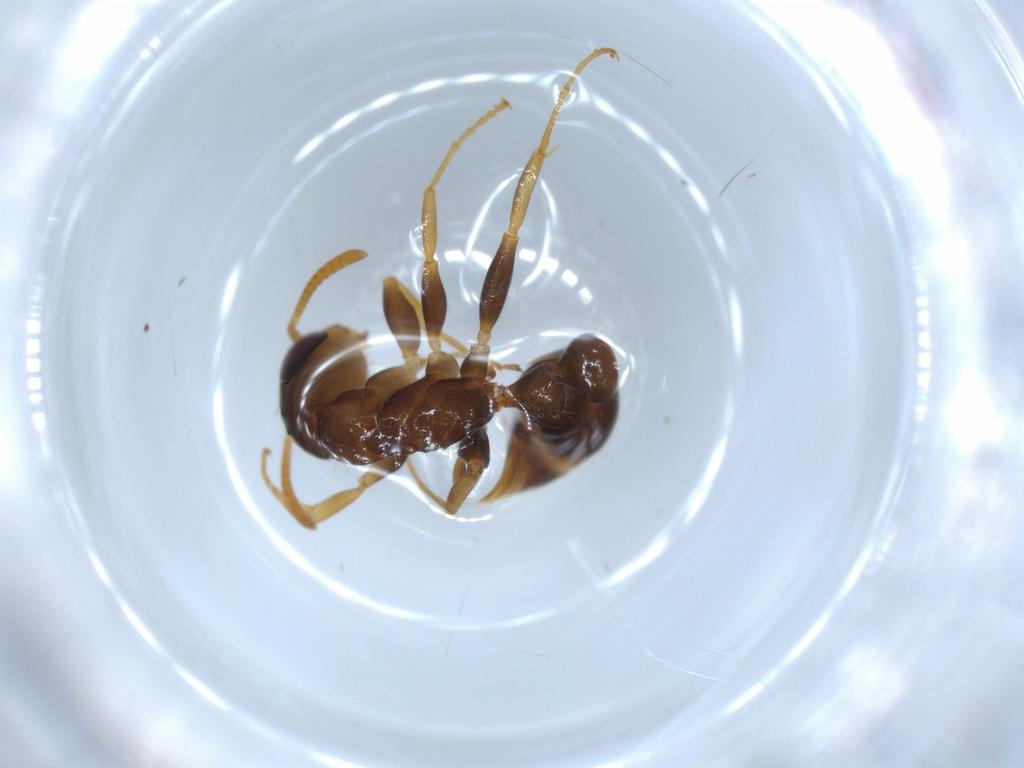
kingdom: Animalia
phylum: Arthropoda
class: Insecta
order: Hymenoptera
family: Formicidae
